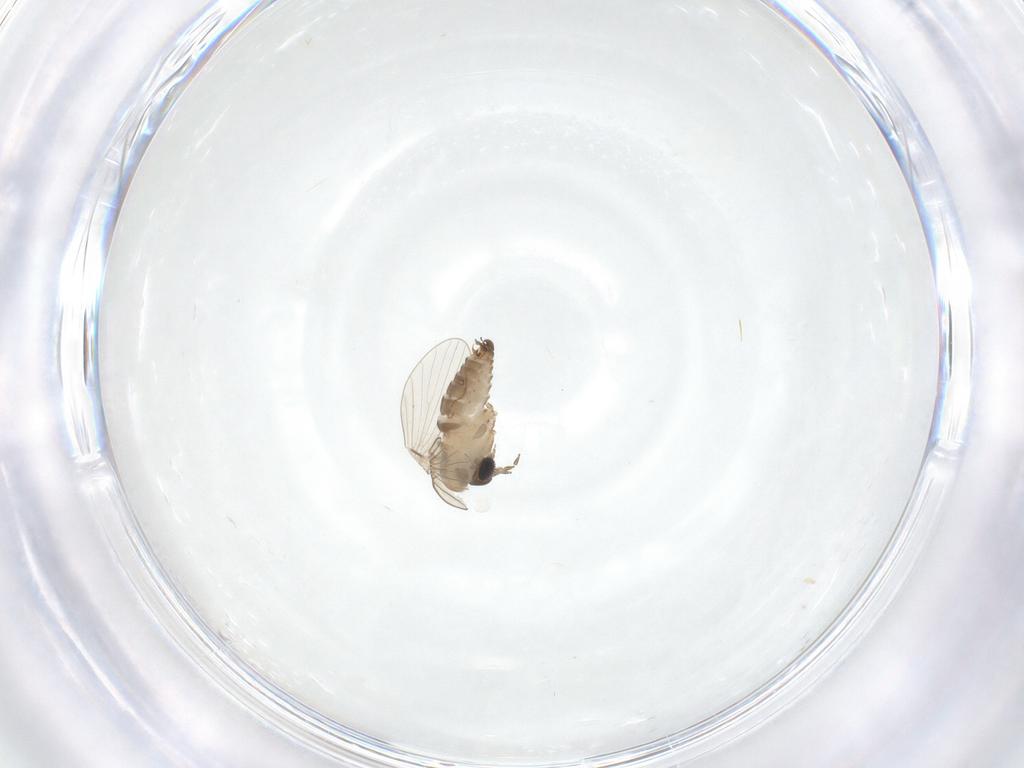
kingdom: Animalia
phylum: Arthropoda
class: Insecta
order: Diptera
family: Psychodidae
